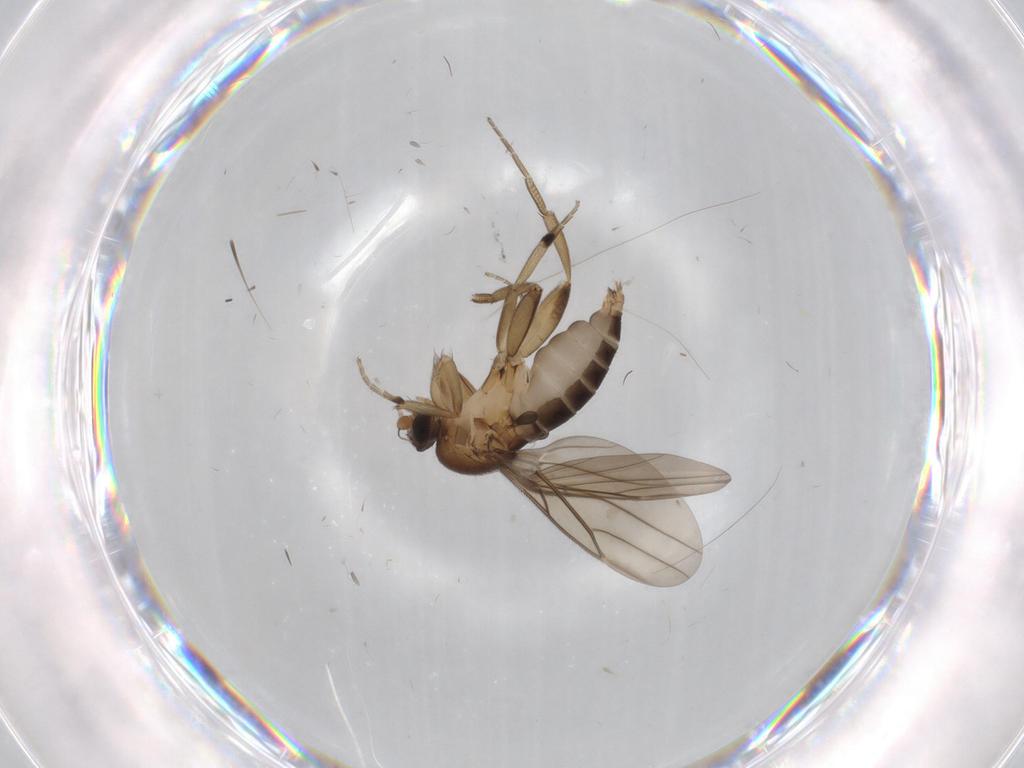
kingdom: Animalia
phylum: Arthropoda
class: Insecta
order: Diptera
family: Phoridae
